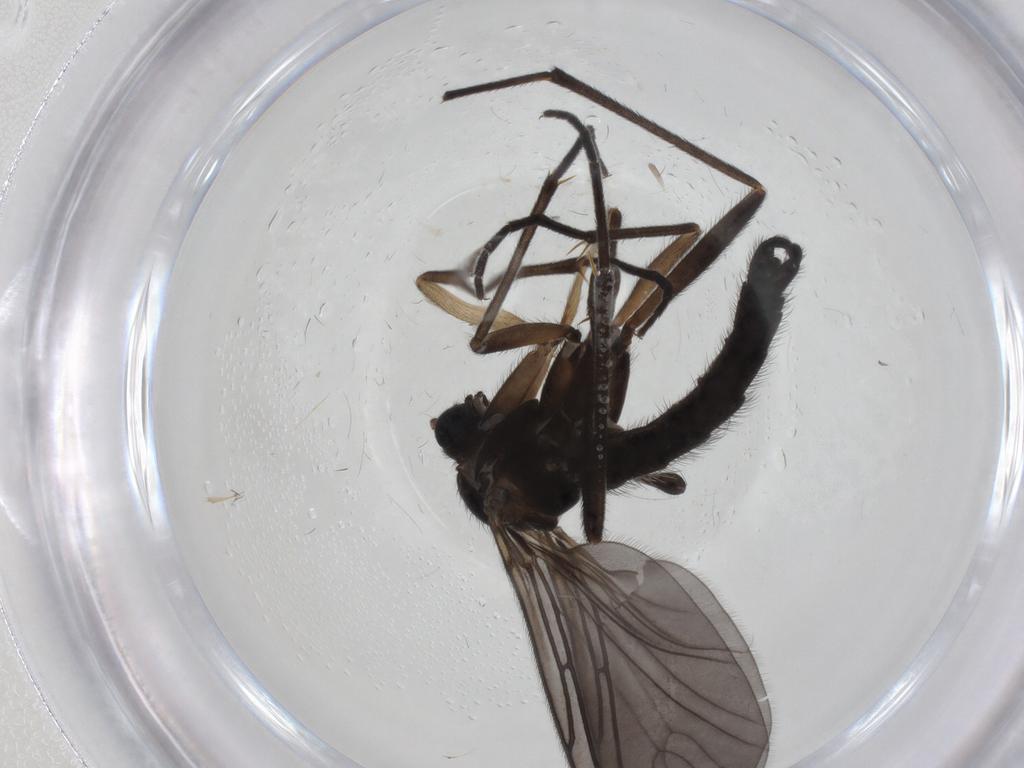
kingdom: Animalia
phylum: Arthropoda
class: Insecta
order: Diptera
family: Sciaridae
